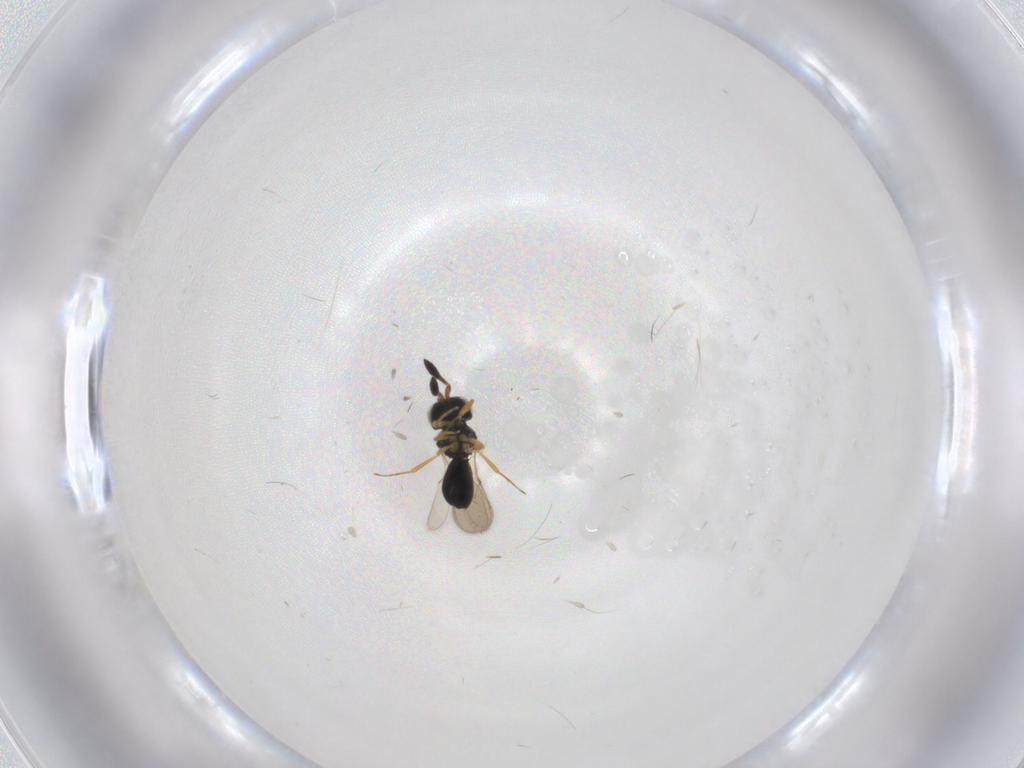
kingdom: Animalia
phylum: Arthropoda
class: Insecta
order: Hymenoptera
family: Scelionidae
